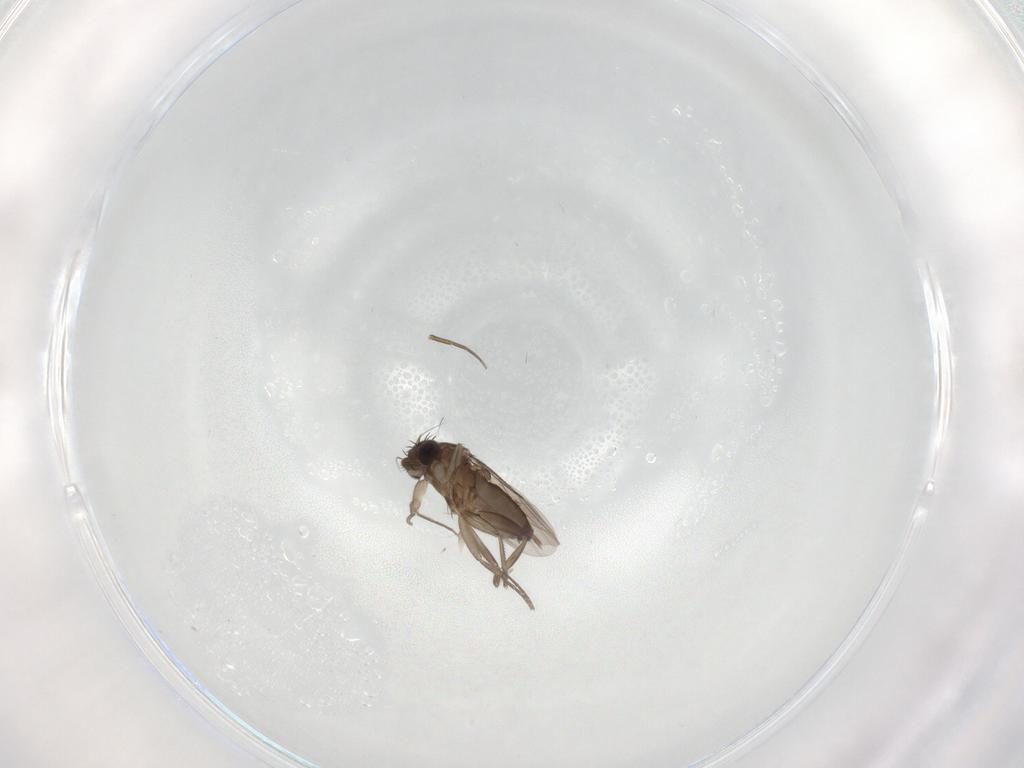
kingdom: Animalia
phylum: Arthropoda
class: Insecta
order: Diptera
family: Phoridae
